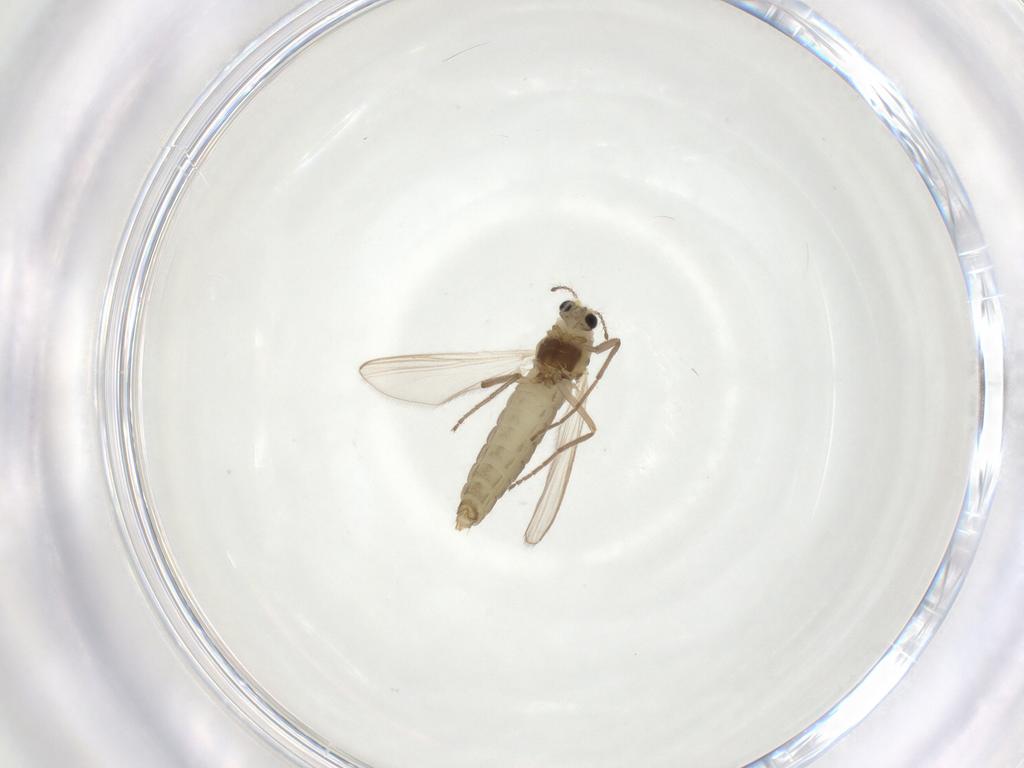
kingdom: Animalia
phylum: Arthropoda
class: Insecta
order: Diptera
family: Chironomidae
